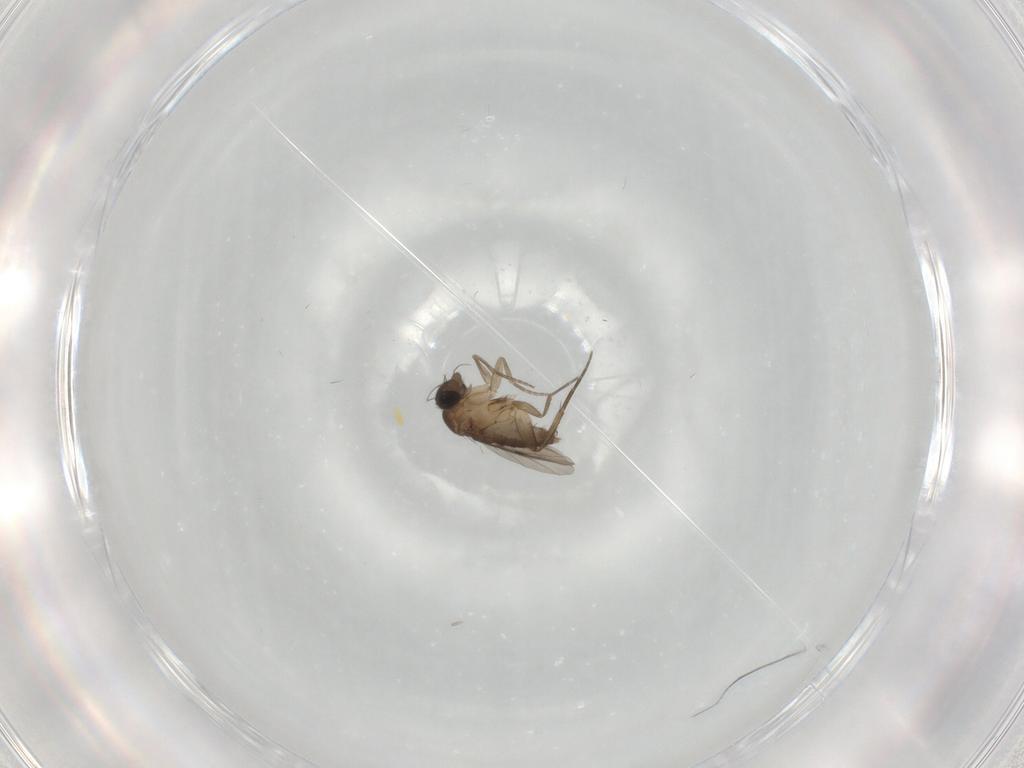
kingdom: Animalia
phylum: Arthropoda
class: Insecta
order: Diptera
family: Phoridae
